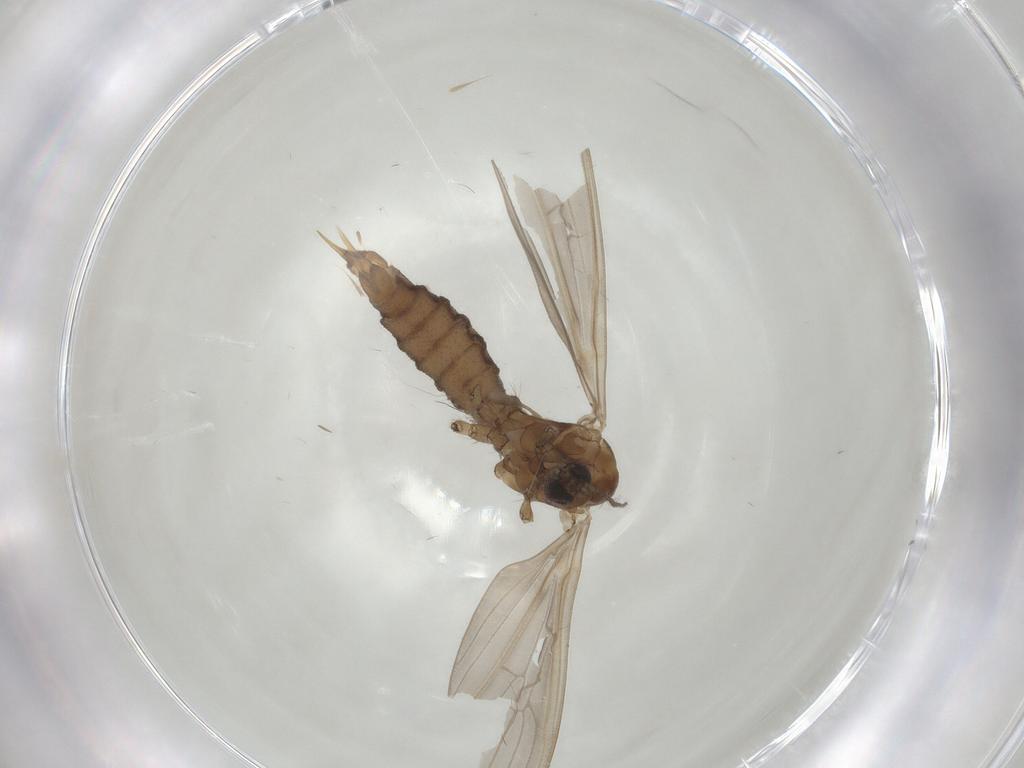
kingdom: Animalia
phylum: Arthropoda
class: Insecta
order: Diptera
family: Limoniidae
